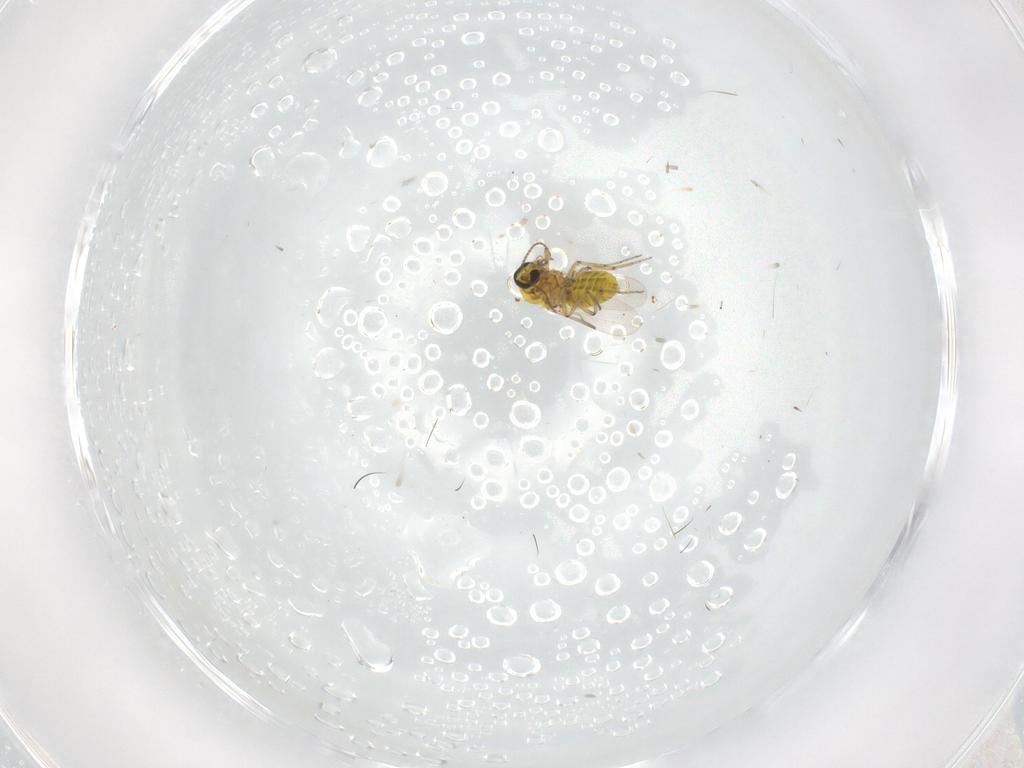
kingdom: Animalia
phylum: Arthropoda
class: Insecta
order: Diptera
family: Ceratopogonidae
